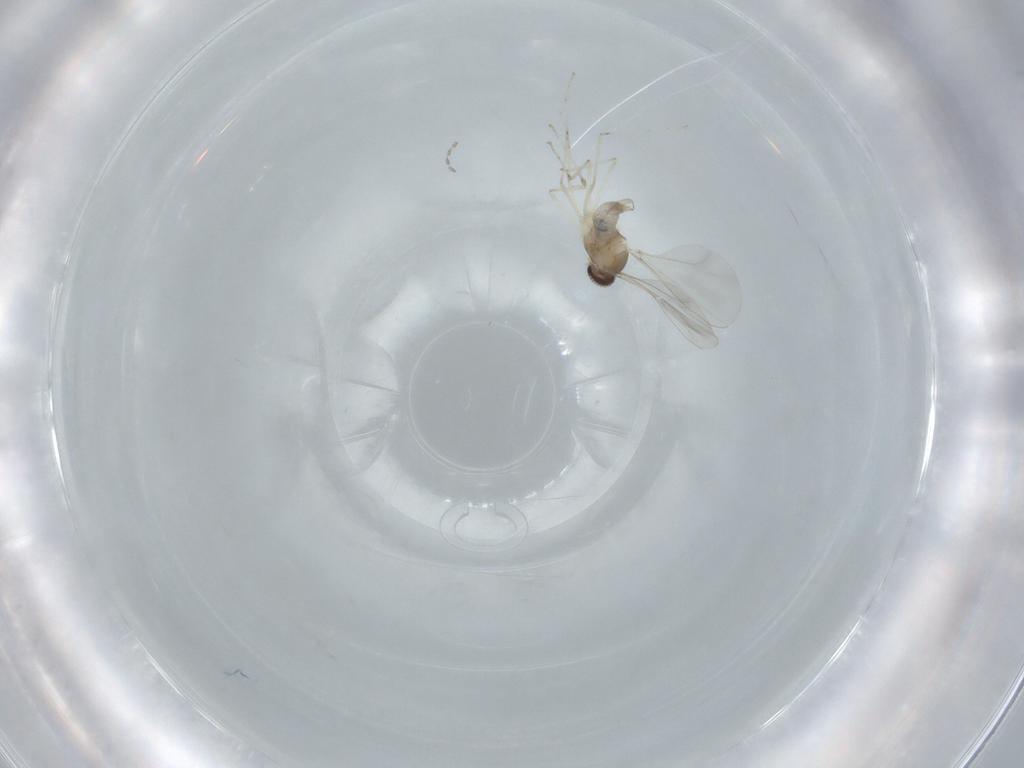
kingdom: Animalia
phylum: Arthropoda
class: Insecta
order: Diptera
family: Cecidomyiidae
